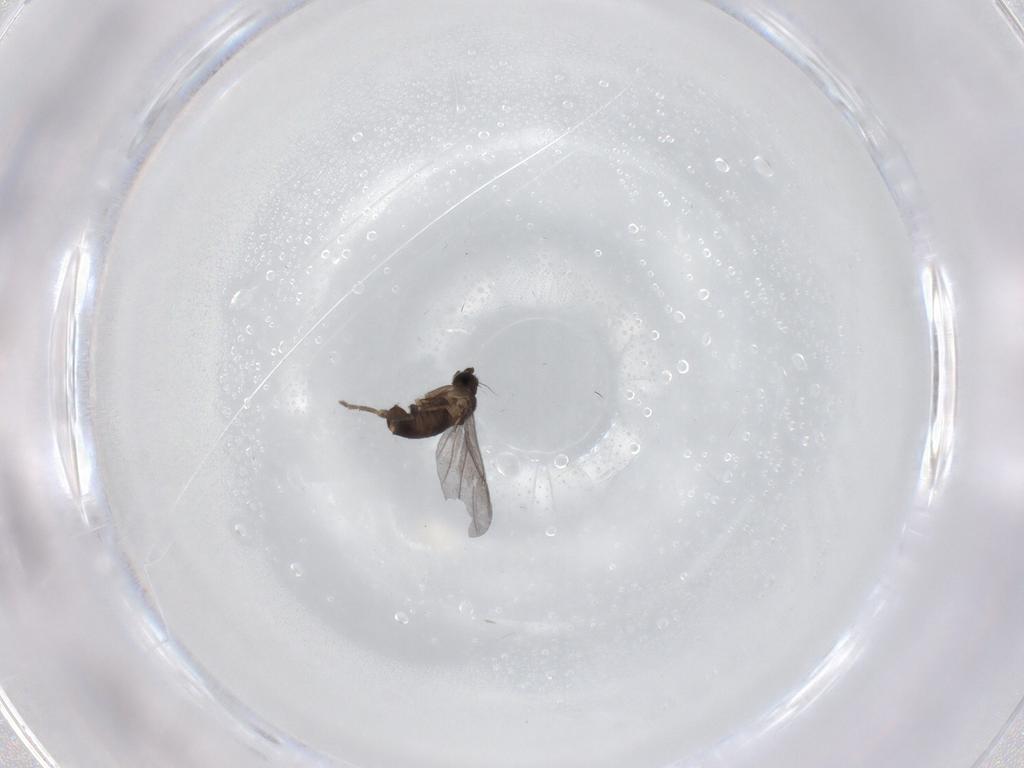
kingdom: Animalia
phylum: Arthropoda
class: Insecta
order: Diptera
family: Phoridae
